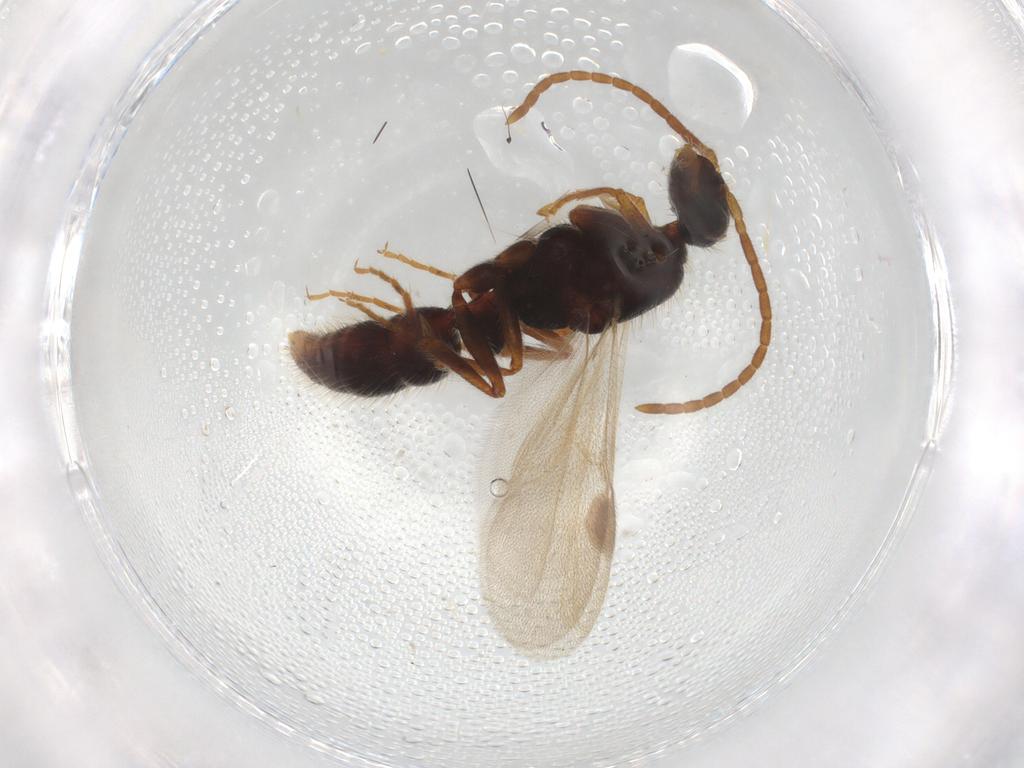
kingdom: Animalia
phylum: Arthropoda
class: Insecta
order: Hymenoptera
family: Formicidae
